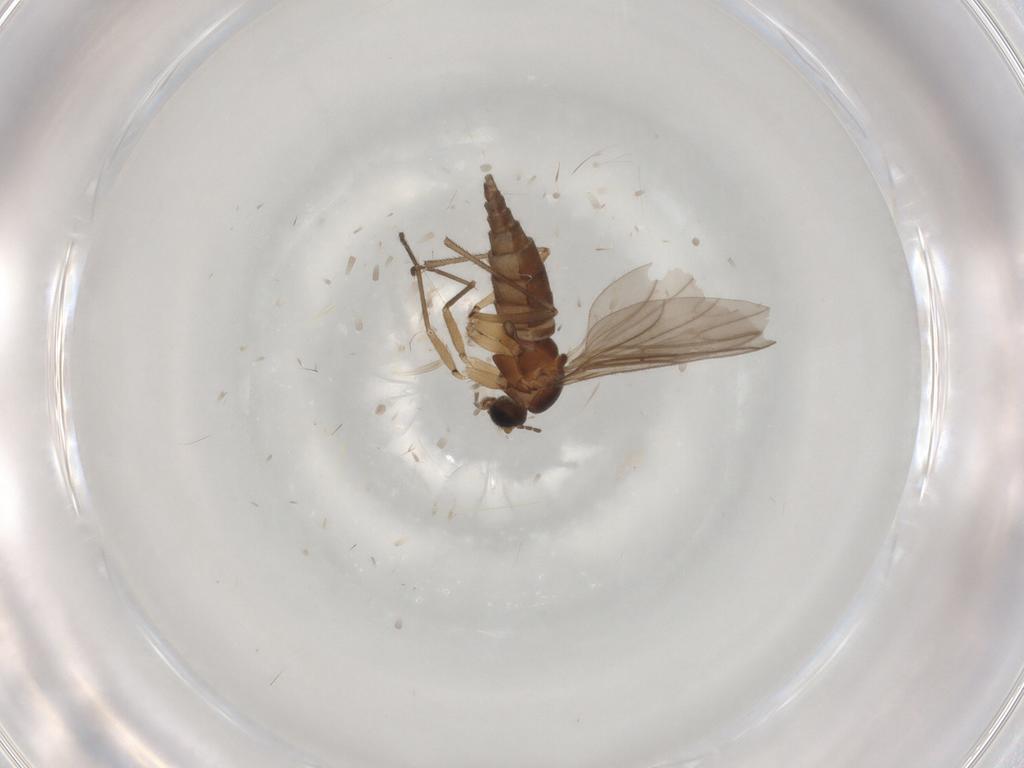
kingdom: Animalia
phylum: Arthropoda
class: Insecta
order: Diptera
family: Sciaridae
